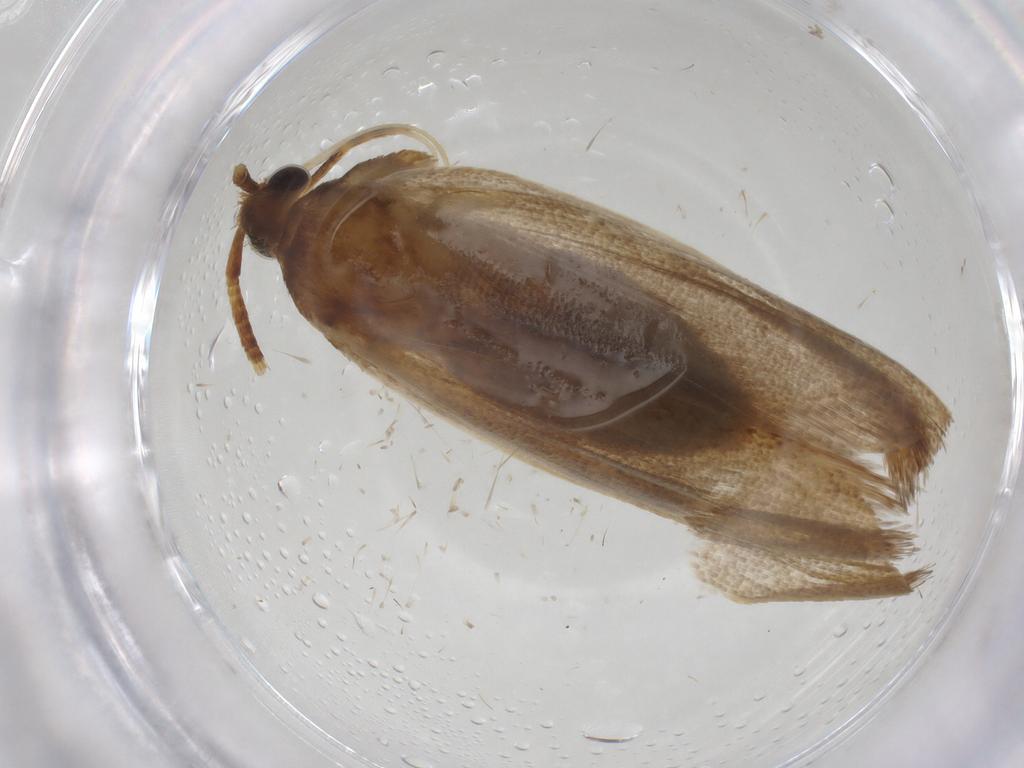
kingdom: Animalia
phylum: Arthropoda
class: Insecta
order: Lepidoptera
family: Lecithoceridae
